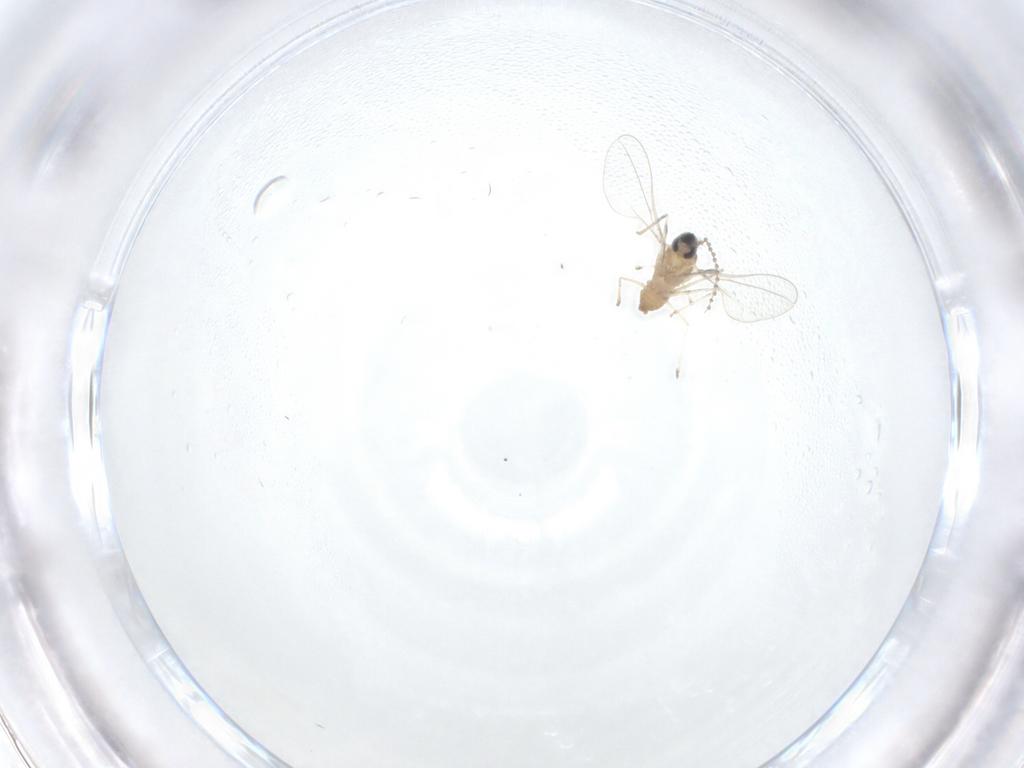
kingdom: Animalia
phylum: Arthropoda
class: Insecta
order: Diptera
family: Cecidomyiidae
